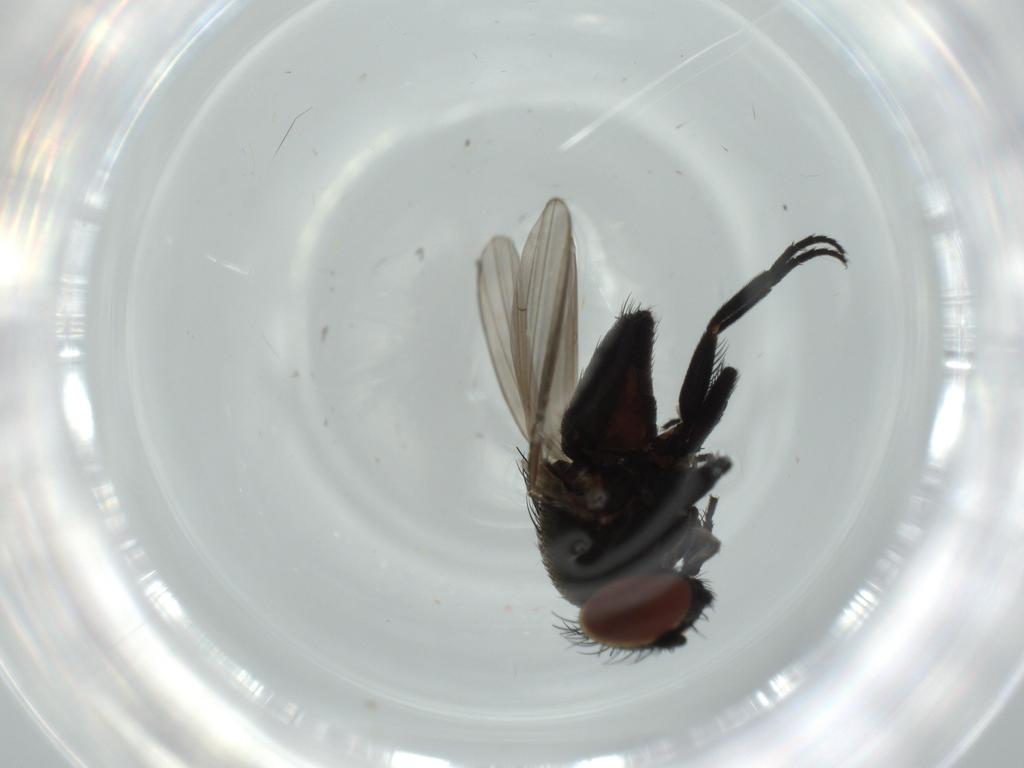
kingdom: Animalia
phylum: Arthropoda
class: Insecta
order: Diptera
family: Milichiidae
